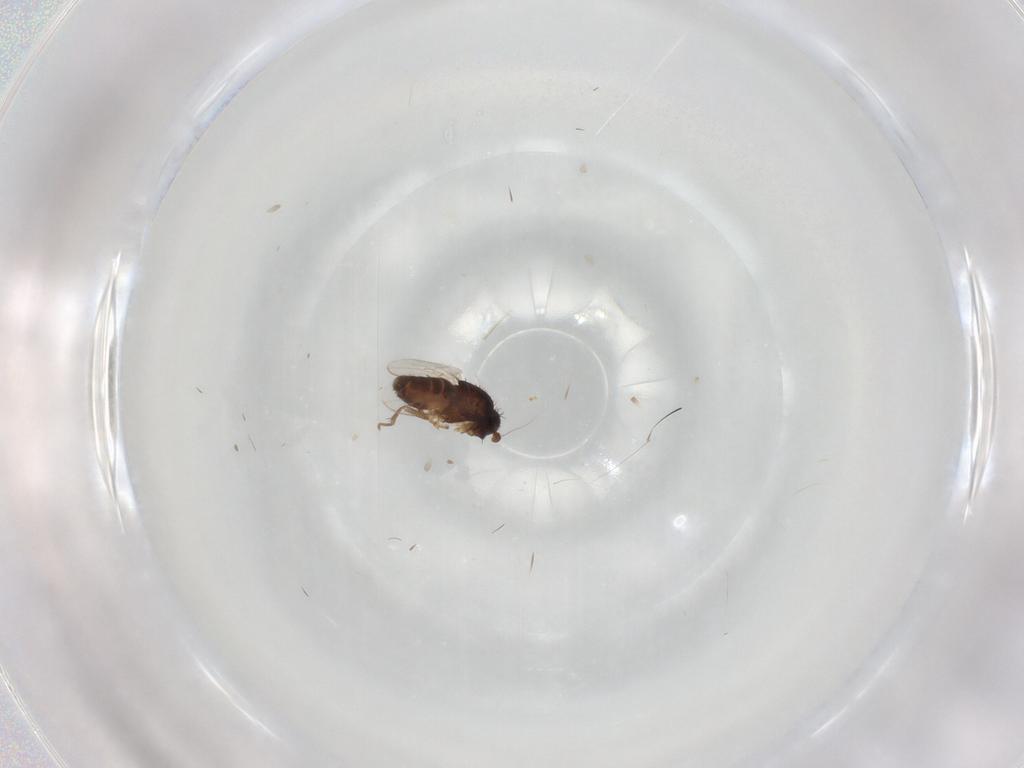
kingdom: Animalia
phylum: Arthropoda
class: Insecta
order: Diptera
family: Sphaeroceridae
